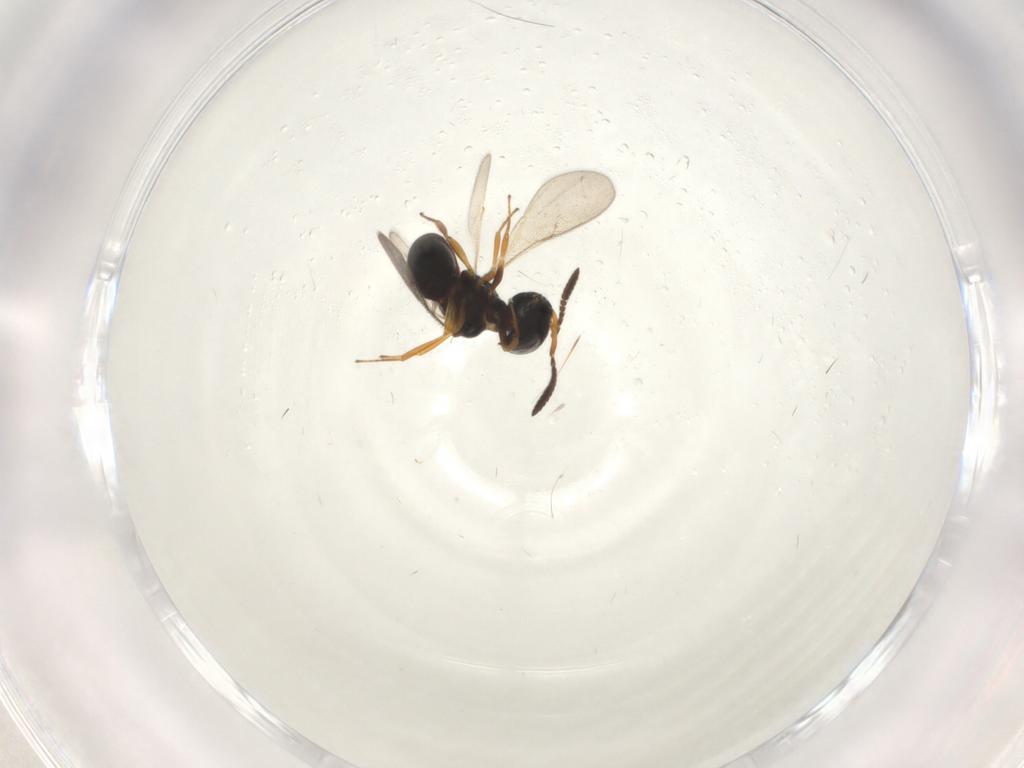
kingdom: Animalia
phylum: Arthropoda
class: Insecta
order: Hymenoptera
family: Scelionidae
